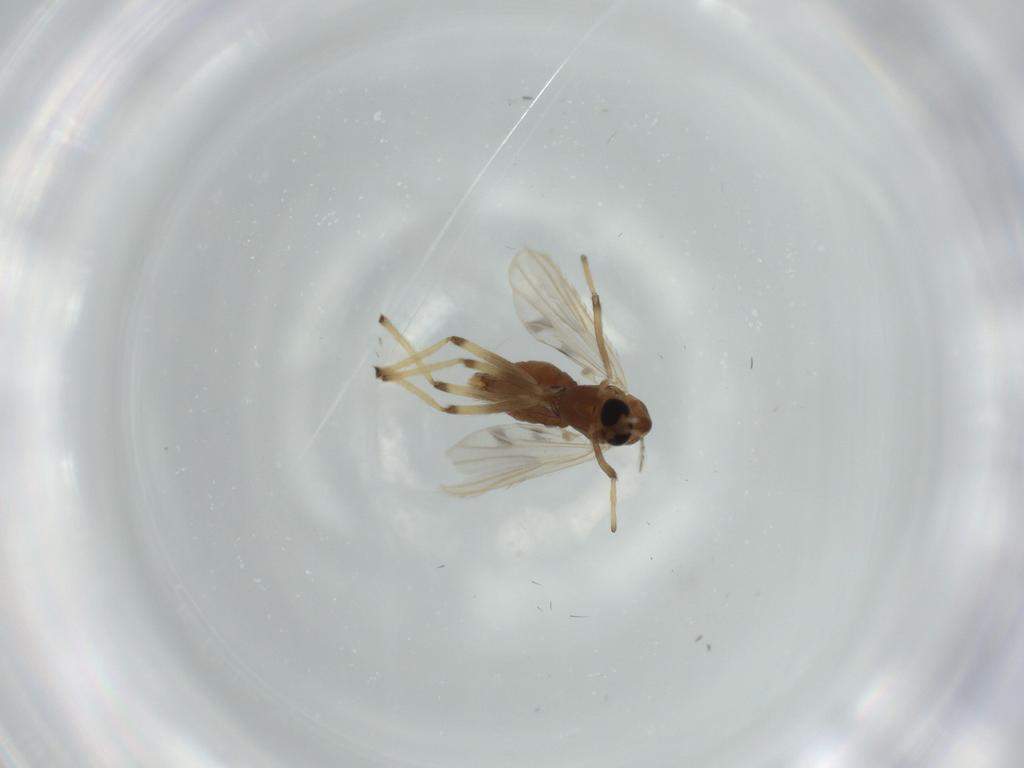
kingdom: Animalia
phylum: Arthropoda
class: Insecta
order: Diptera
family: Chironomidae
